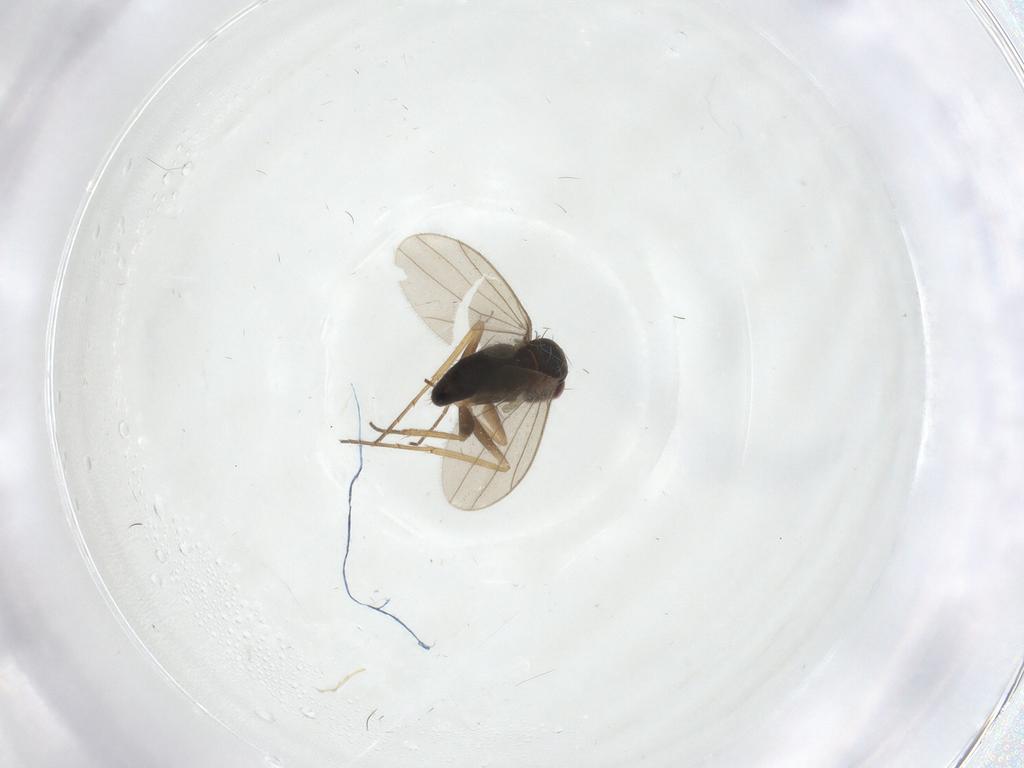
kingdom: Animalia
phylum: Arthropoda
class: Insecta
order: Diptera
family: Dolichopodidae
